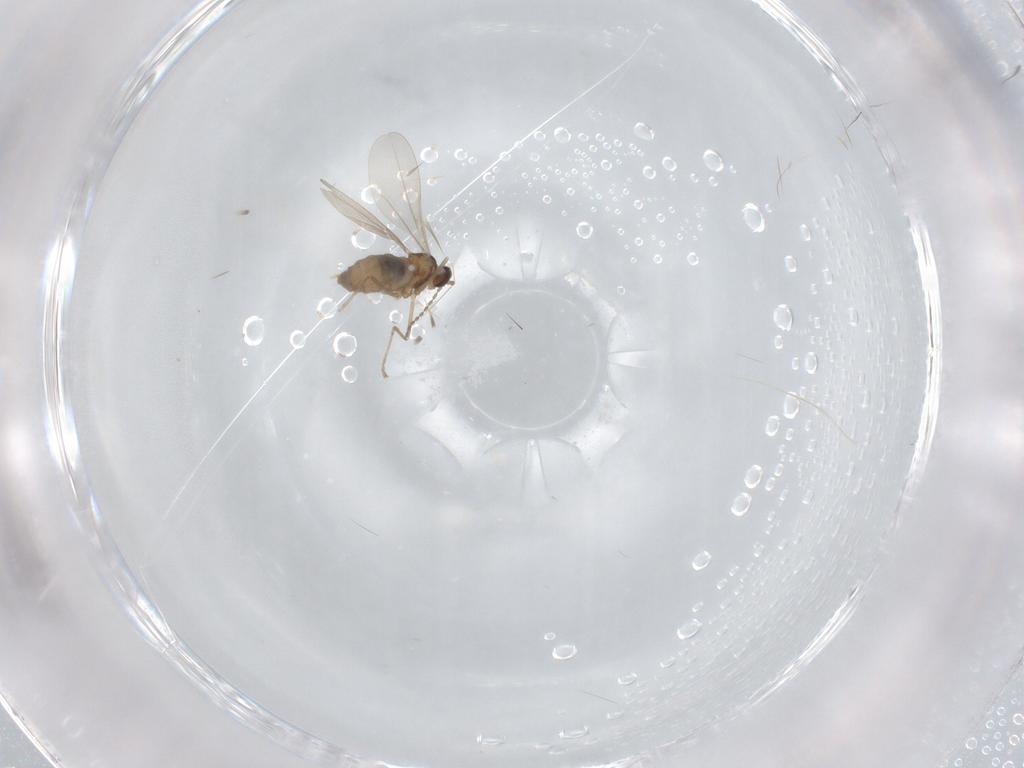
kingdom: Animalia
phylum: Arthropoda
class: Insecta
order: Diptera
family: Cecidomyiidae
